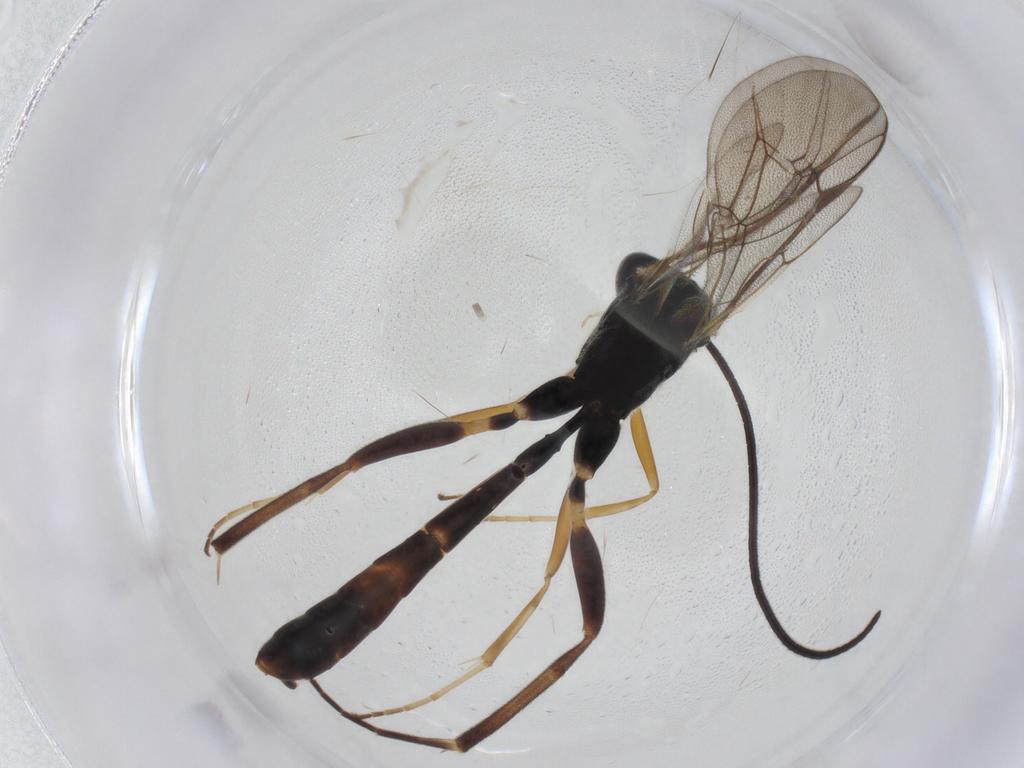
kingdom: Animalia
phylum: Arthropoda
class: Insecta
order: Hymenoptera
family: Ichneumonidae
